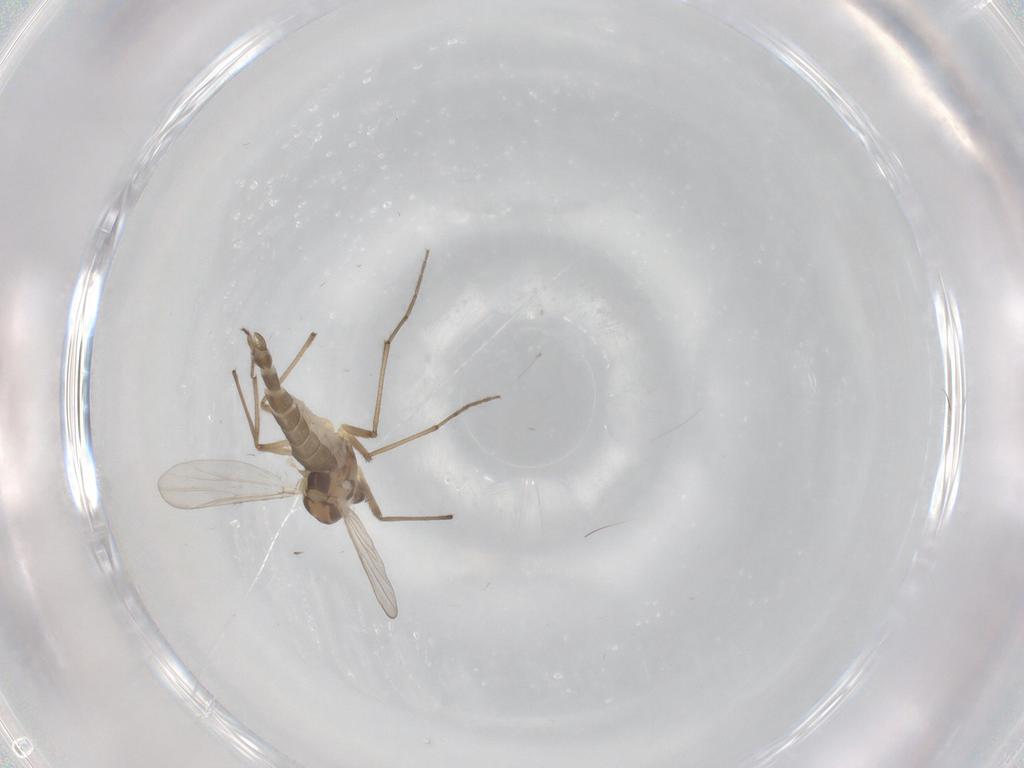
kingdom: Animalia
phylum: Arthropoda
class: Insecta
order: Diptera
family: Chironomidae
